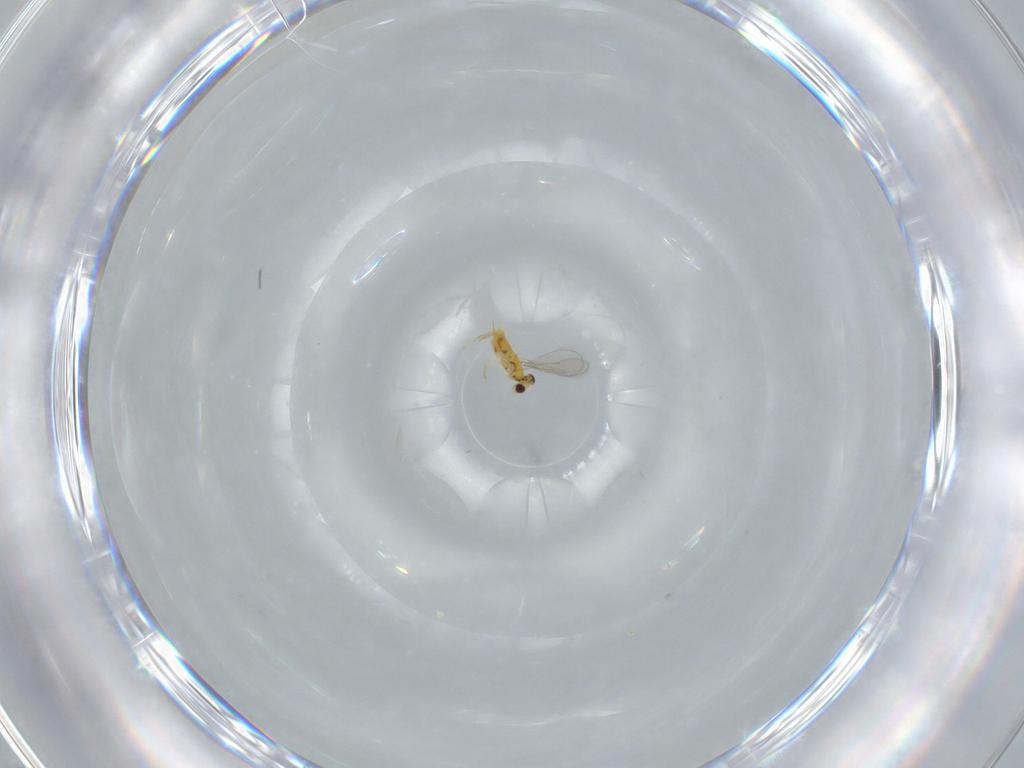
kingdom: Animalia
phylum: Arthropoda
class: Insecta
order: Hymenoptera
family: Aphelinidae
